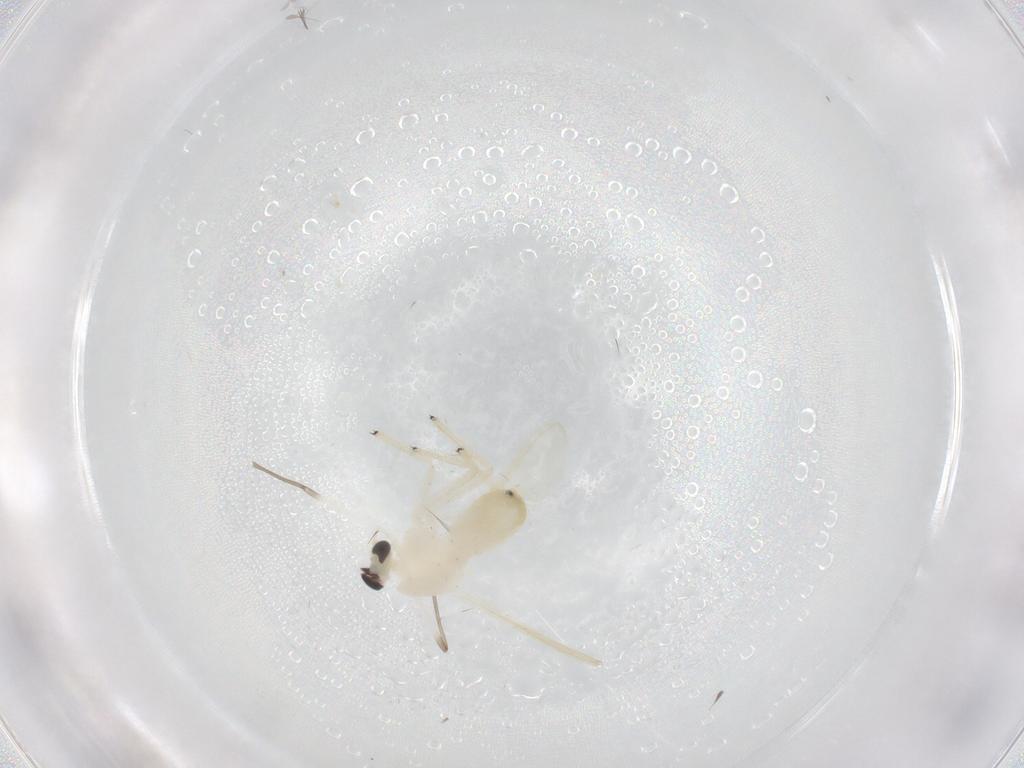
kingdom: Animalia
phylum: Arthropoda
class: Insecta
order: Diptera
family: Chironomidae
